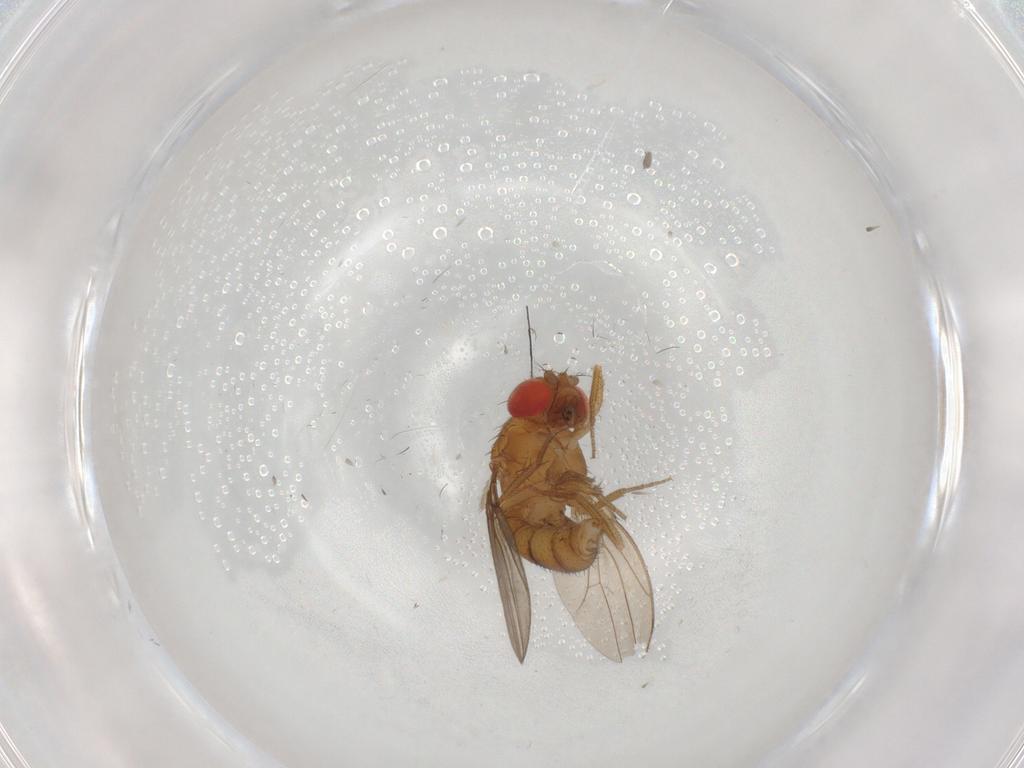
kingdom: Animalia
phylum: Arthropoda
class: Insecta
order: Diptera
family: Drosophilidae
